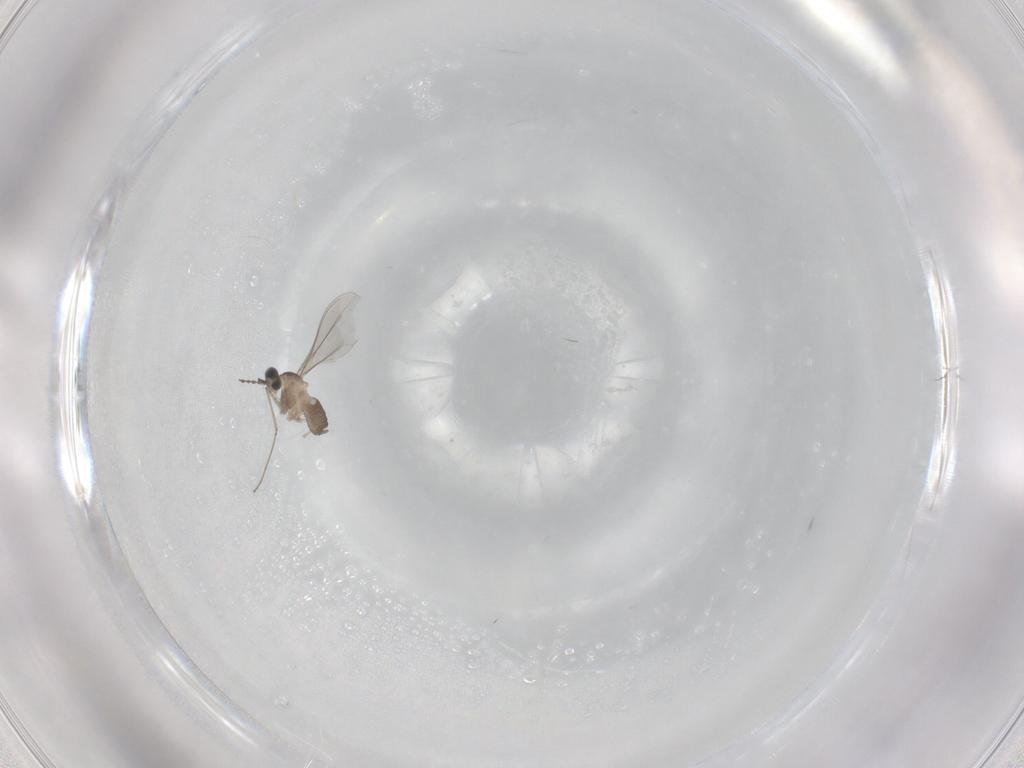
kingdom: Animalia
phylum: Arthropoda
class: Insecta
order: Diptera
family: Cecidomyiidae
